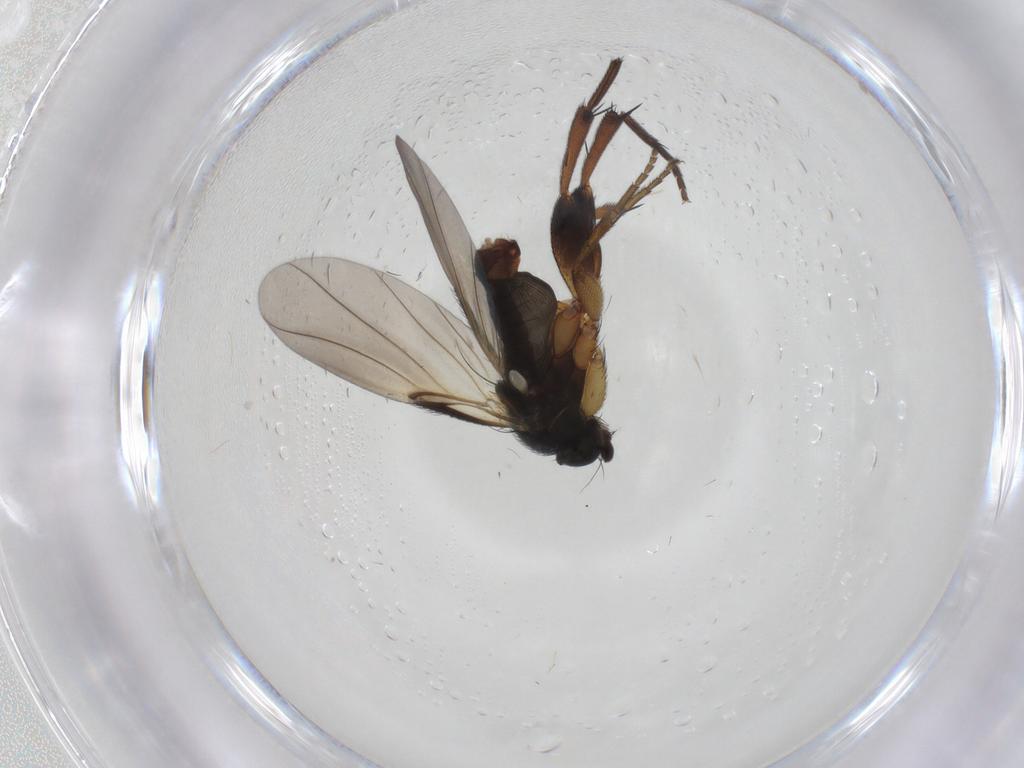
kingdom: Animalia
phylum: Arthropoda
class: Insecta
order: Diptera
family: Phoridae
